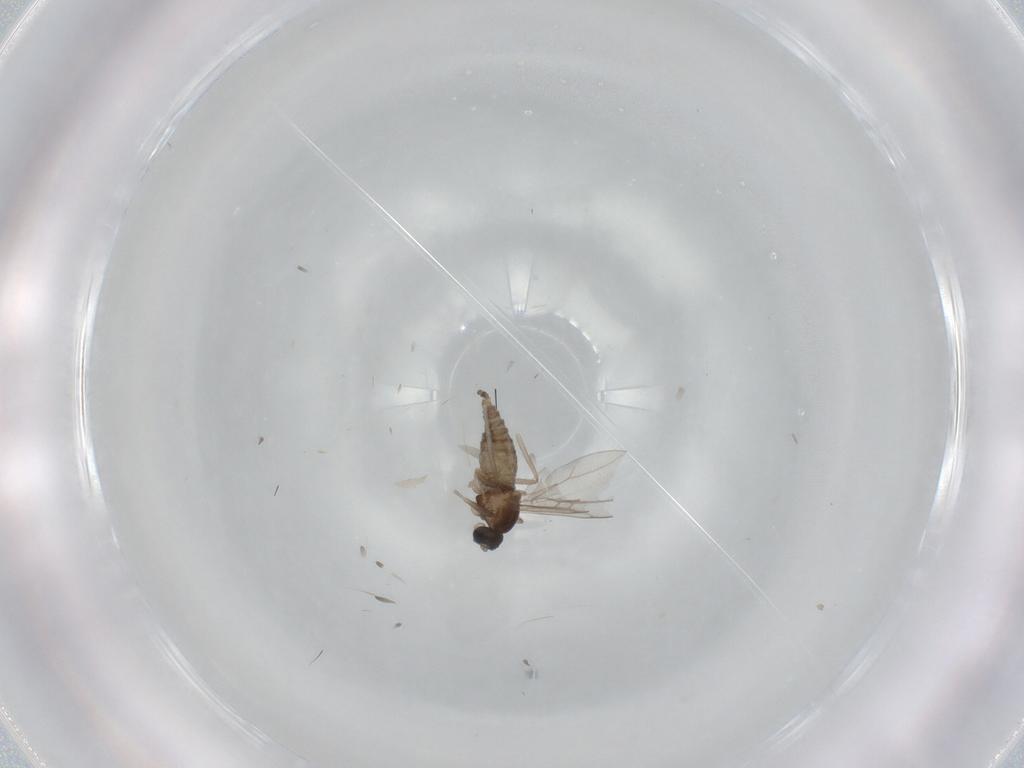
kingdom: Animalia
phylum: Arthropoda
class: Insecta
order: Diptera
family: Cecidomyiidae
